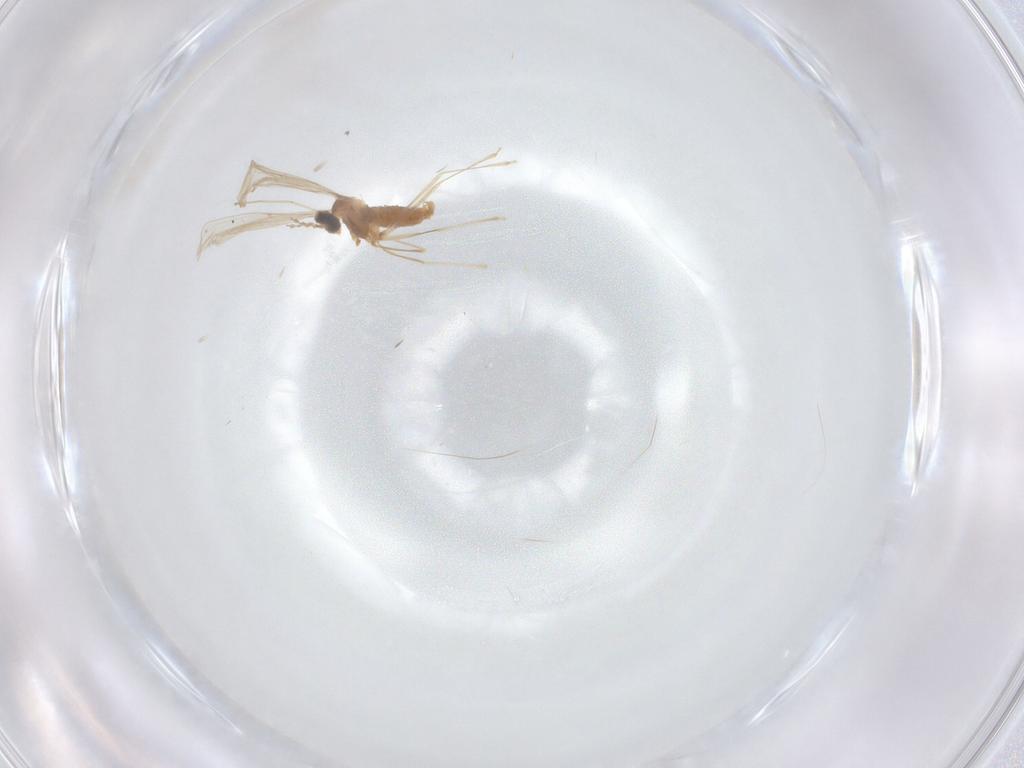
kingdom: Animalia
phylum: Arthropoda
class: Insecta
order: Diptera
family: Cecidomyiidae
